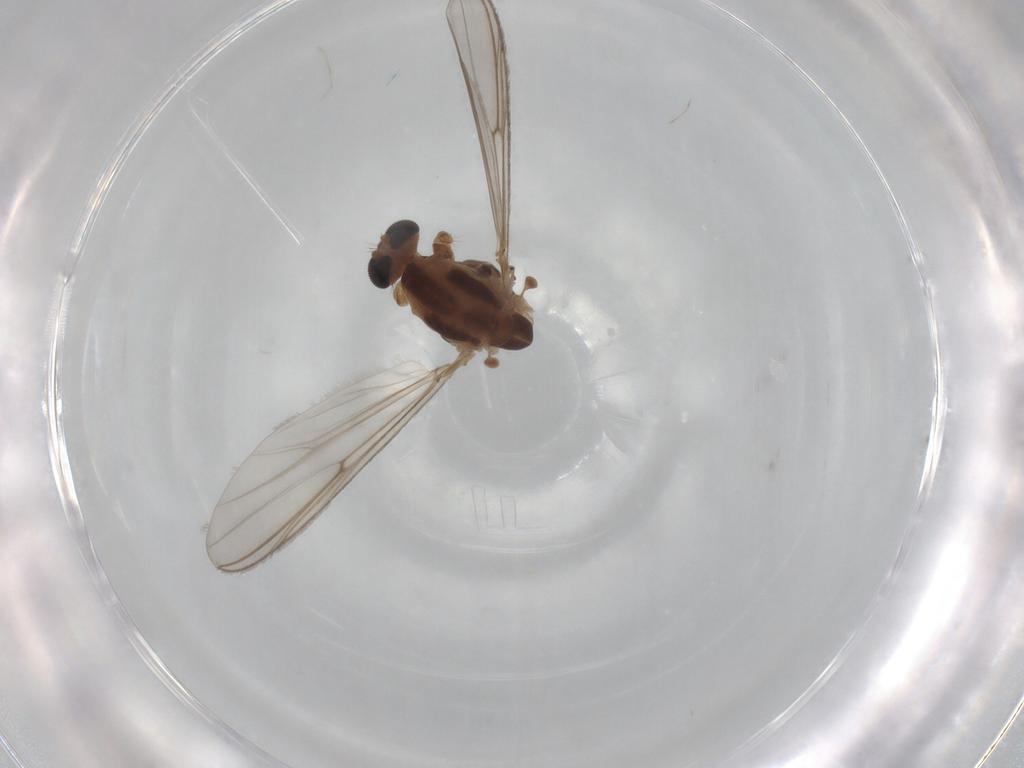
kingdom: Animalia
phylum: Arthropoda
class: Insecta
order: Diptera
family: Chironomidae
